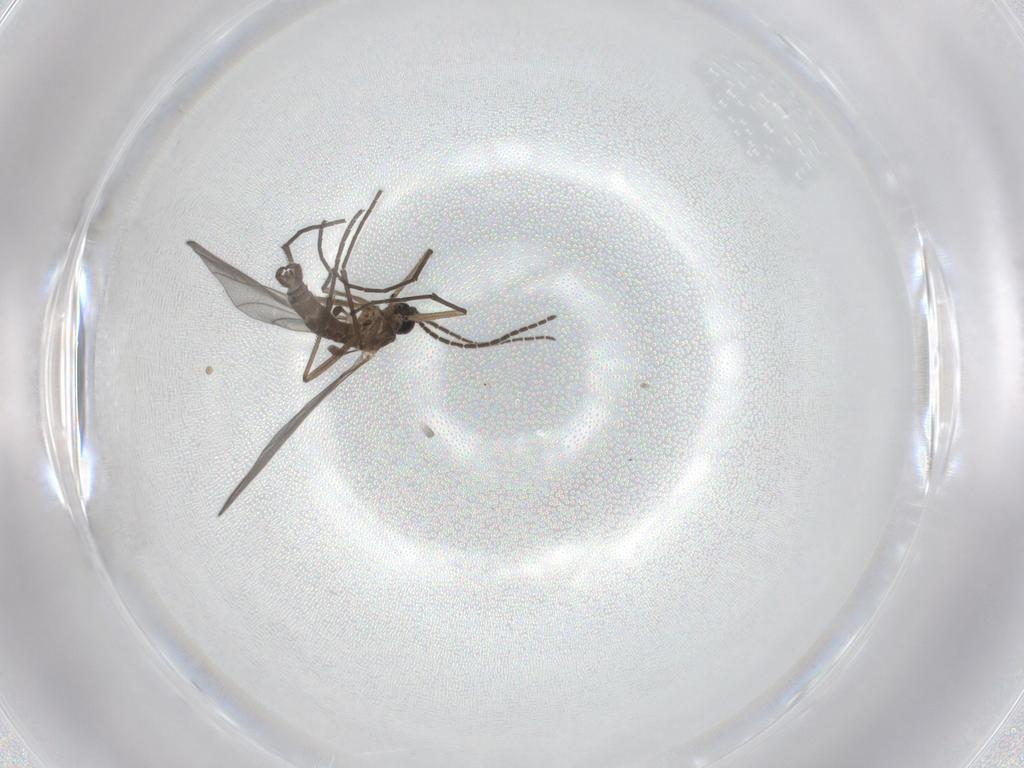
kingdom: Animalia
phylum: Arthropoda
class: Insecta
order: Diptera
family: Sciaridae
